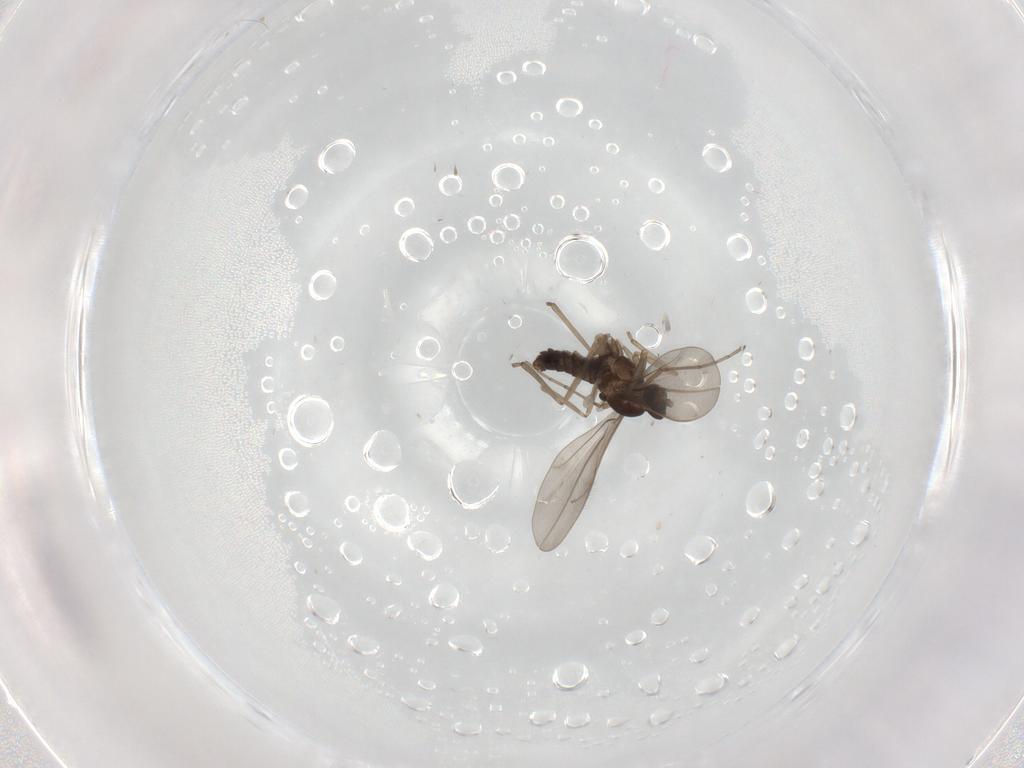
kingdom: Animalia
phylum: Arthropoda
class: Insecta
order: Diptera
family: Cecidomyiidae
